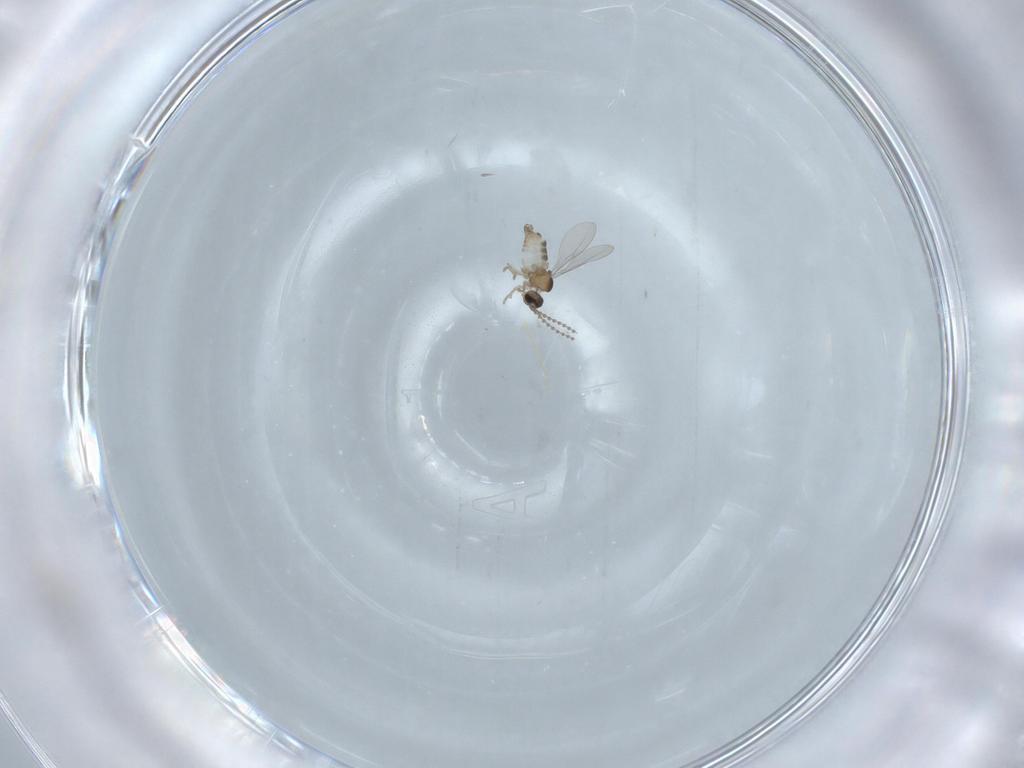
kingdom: Animalia
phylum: Arthropoda
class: Insecta
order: Diptera
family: Ceratopogonidae
